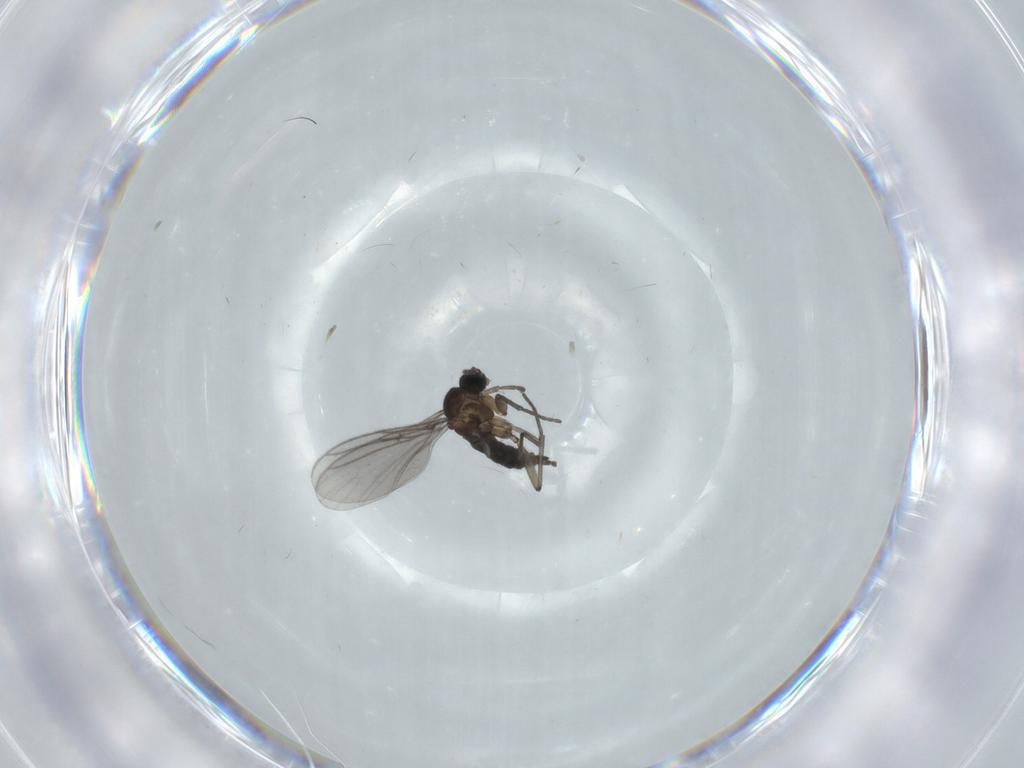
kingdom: Animalia
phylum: Arthropoda
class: Insecta
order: Diptera
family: Sciaridae
